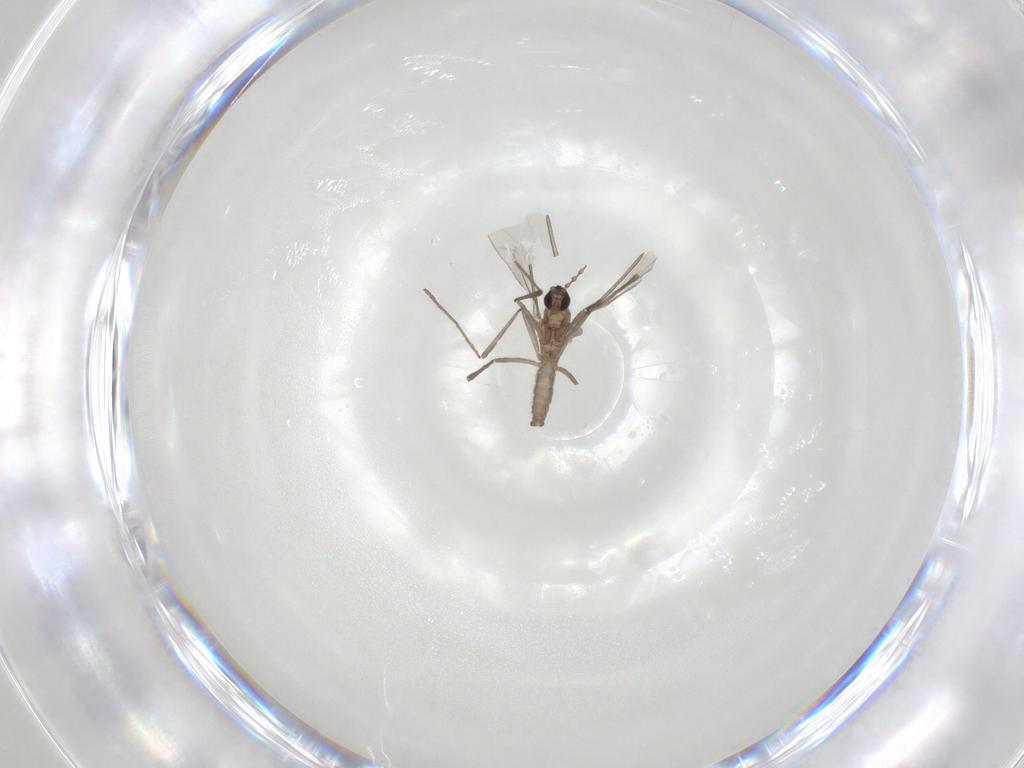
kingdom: Animalia
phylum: Arthropoda
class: Insecta
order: Diptera
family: Cecidomyiidae
